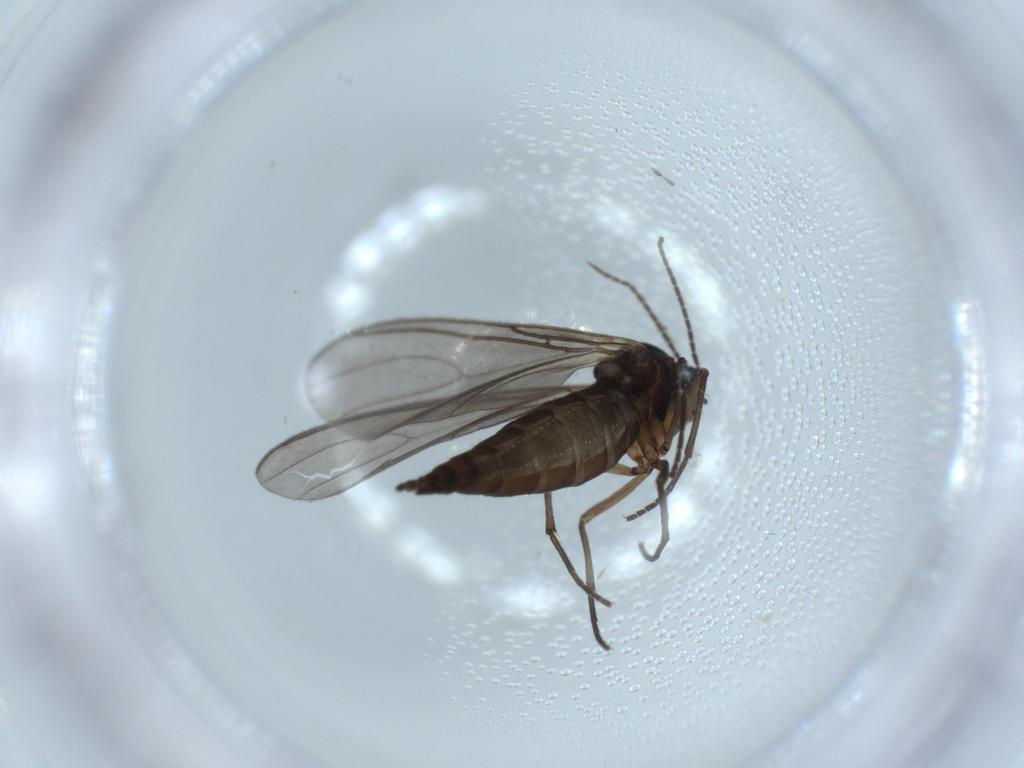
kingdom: Animalia
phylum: Arthropoda
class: Insecta
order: Diptera
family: Sciaridae
